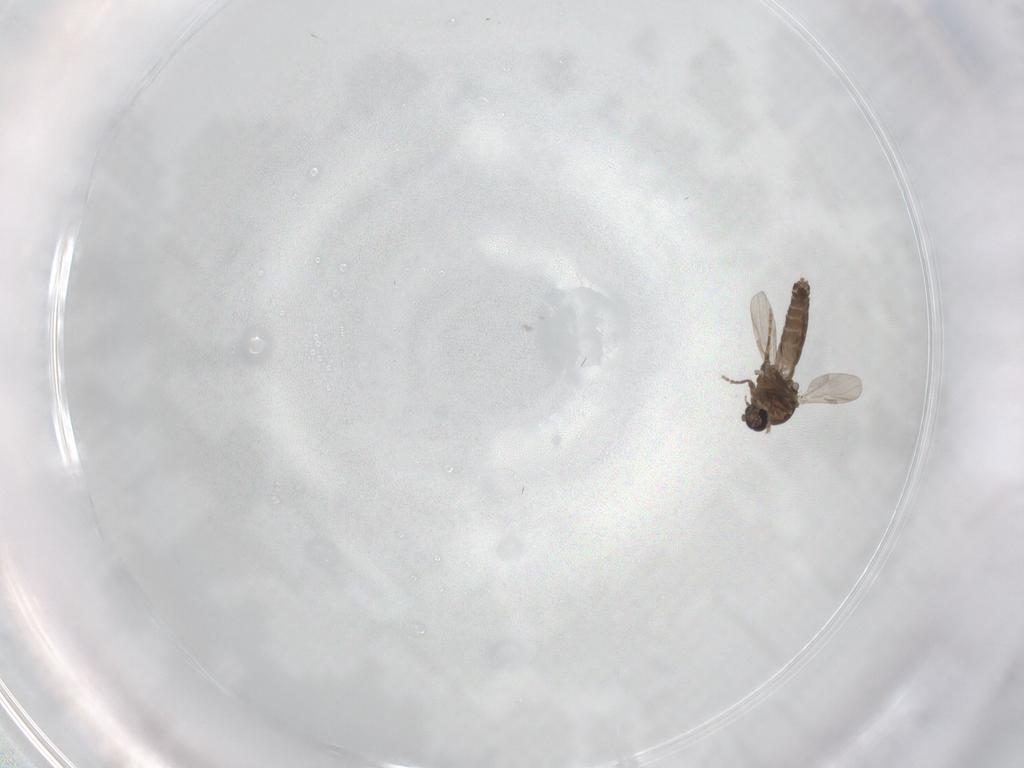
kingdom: Animalia
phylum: Arthropoda
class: Insecta
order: Diptera
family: Ceratopogonidae
